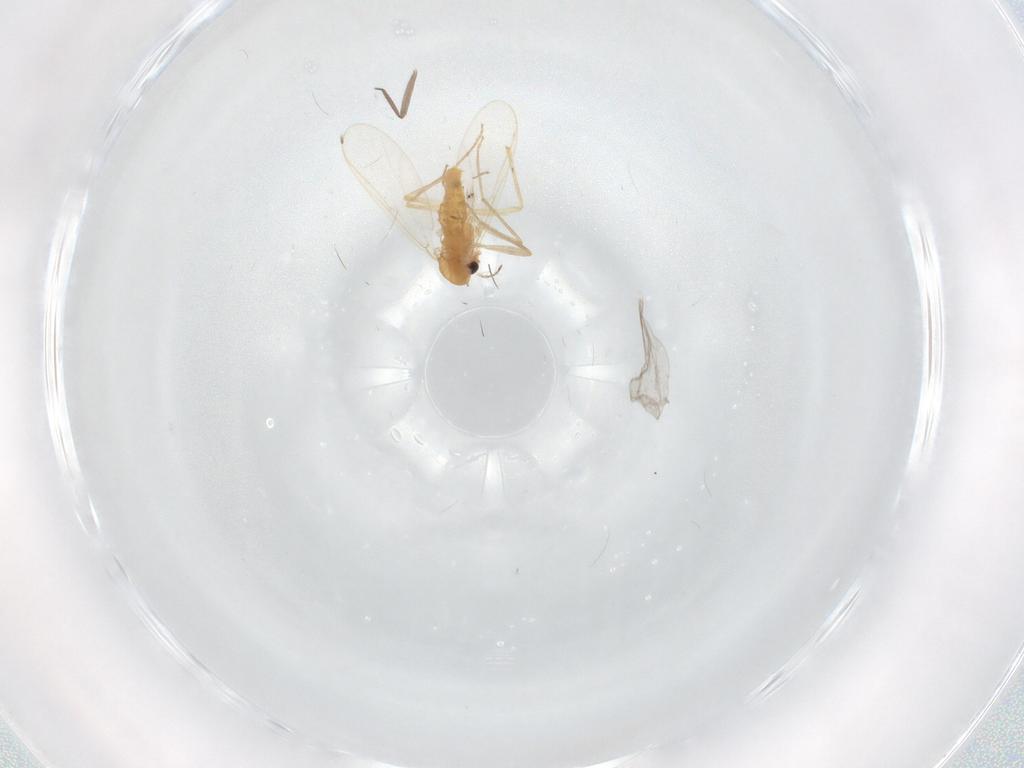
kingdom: Animalia
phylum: Arthropoda
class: Insecta
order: Diptera
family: Chironomidae
